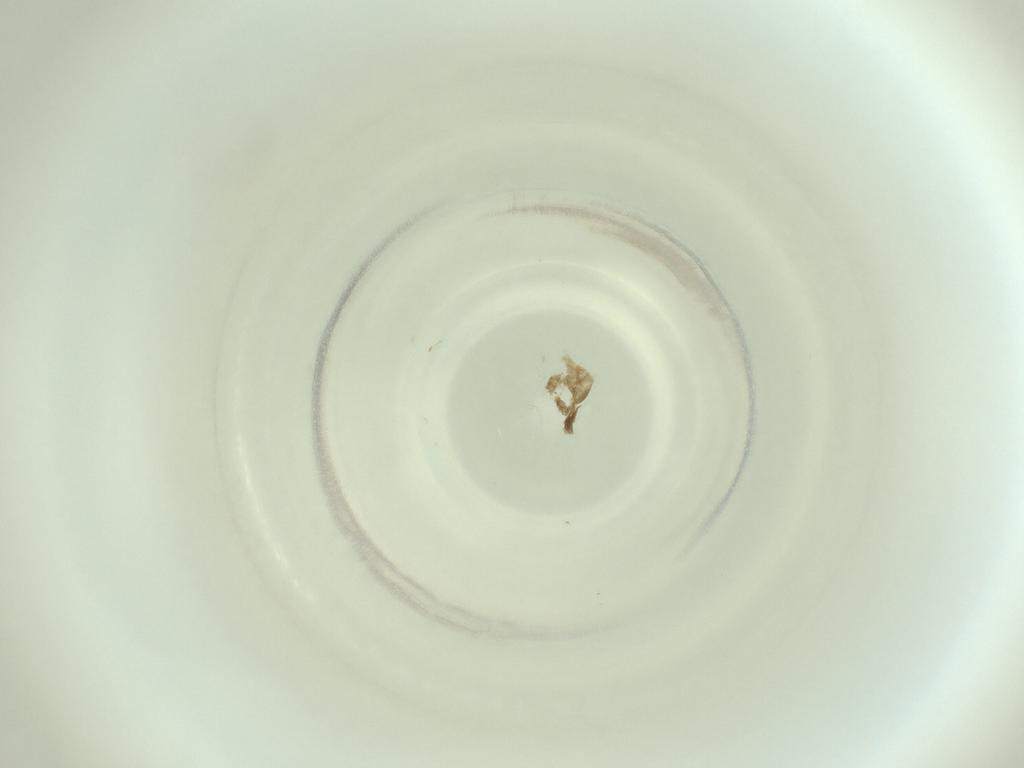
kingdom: Animalia
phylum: Arthropoda
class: Insecta
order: Diptera
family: Cecidomyiidae
